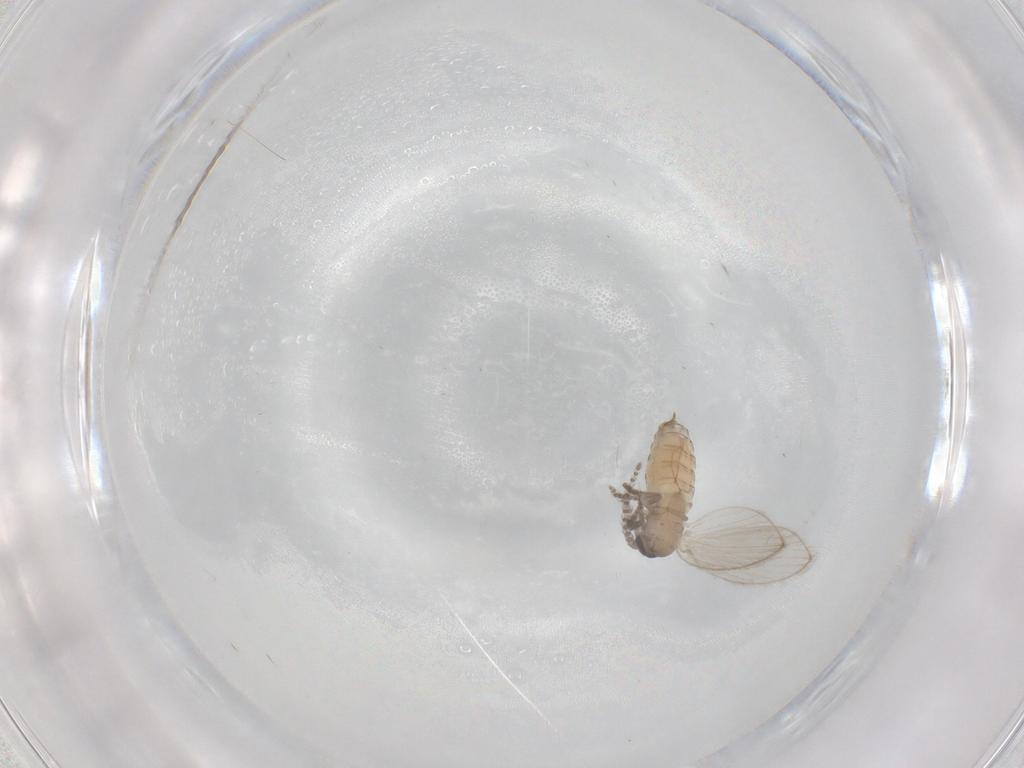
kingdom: Animalia
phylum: Arthropoda
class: Insecta
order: Diptera
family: Psychodidae
